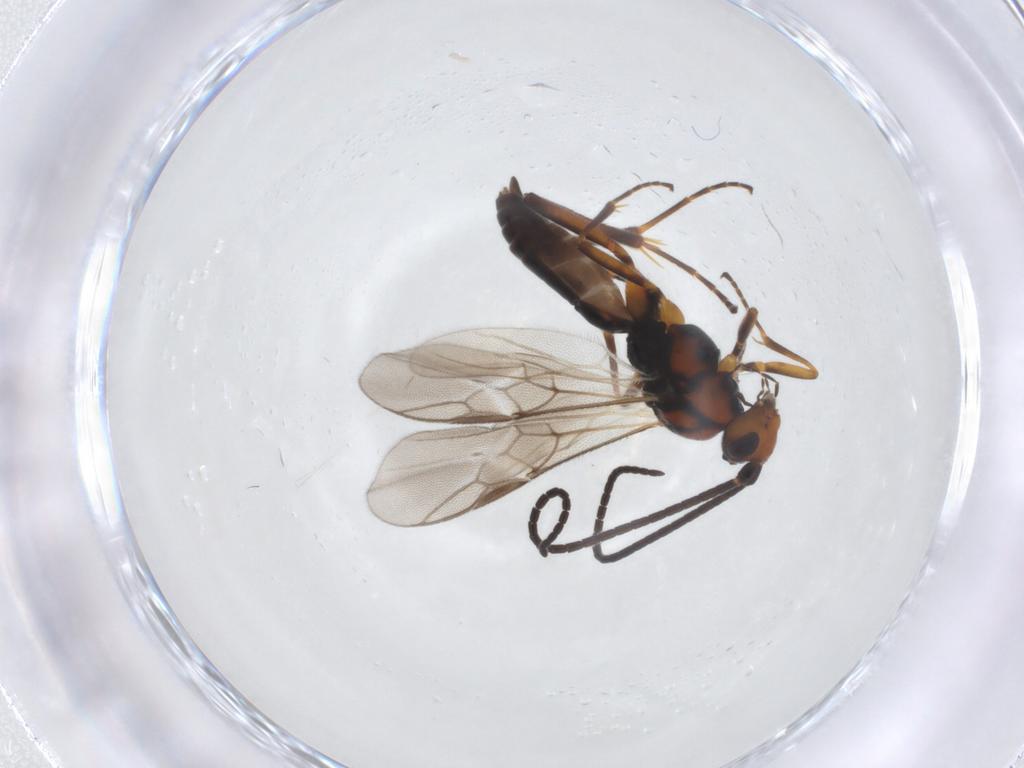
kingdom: Animalia
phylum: Arthropoda
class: Insecta
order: Hymenoptera
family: Braconidae
